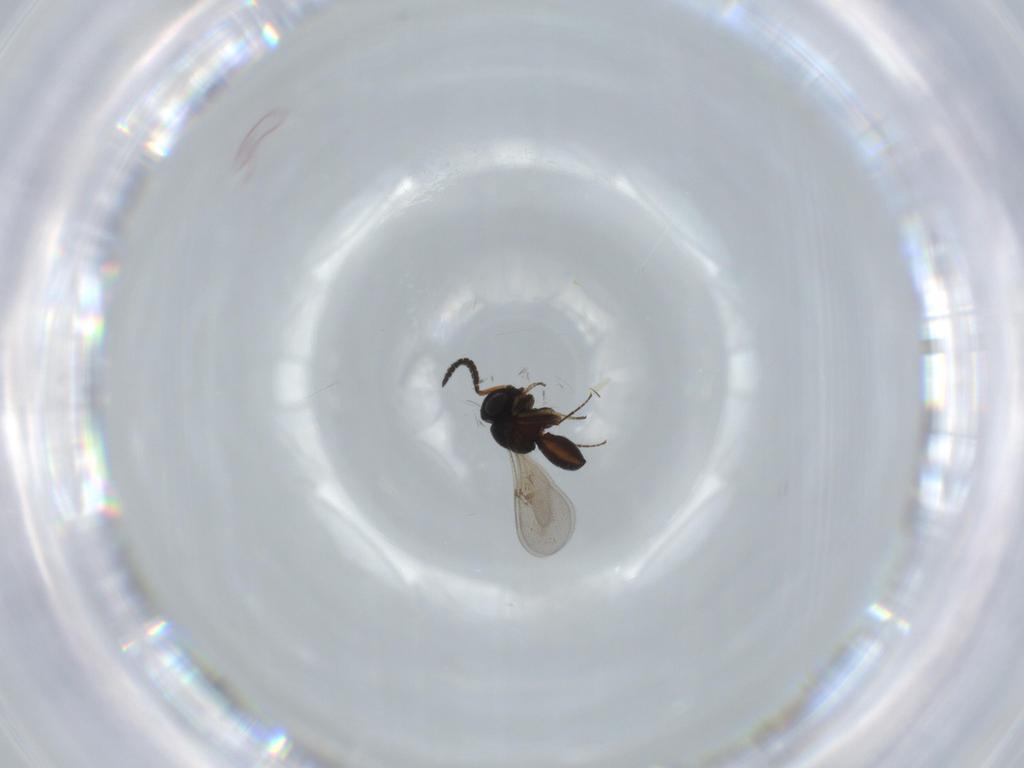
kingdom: Animalia
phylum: Arthropoda
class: Insecta
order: Hymenoptera
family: Scelionidae
